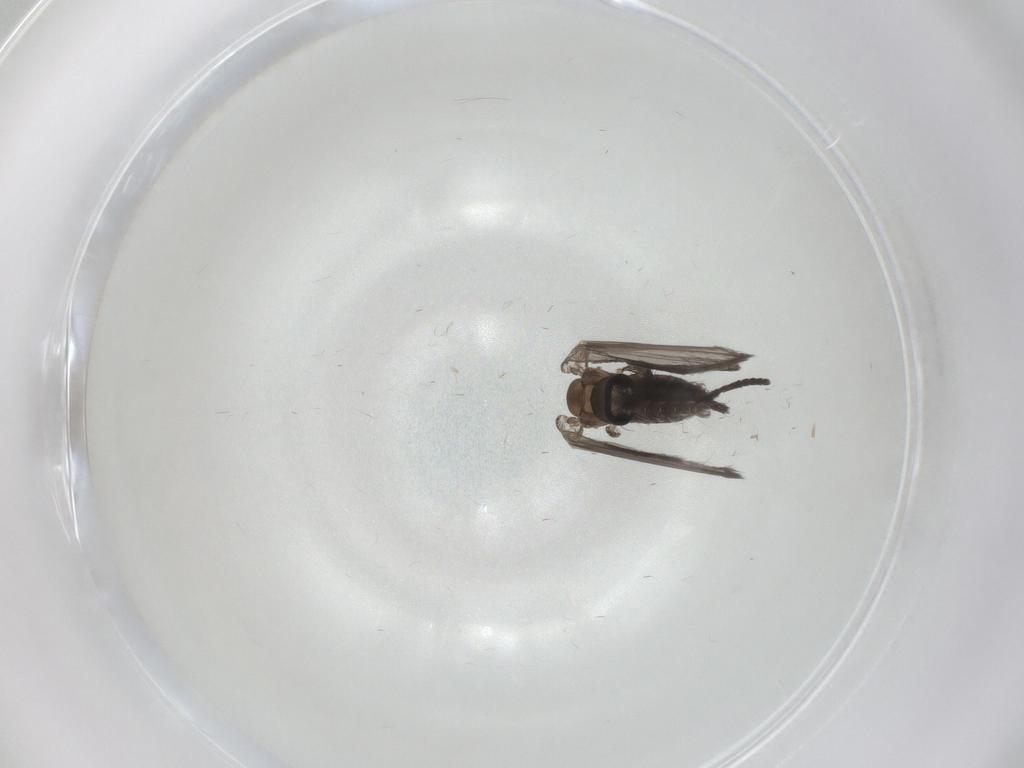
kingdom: Animalia
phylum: Arthropoda
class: Insecta
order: Diptera
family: Psychodidae
